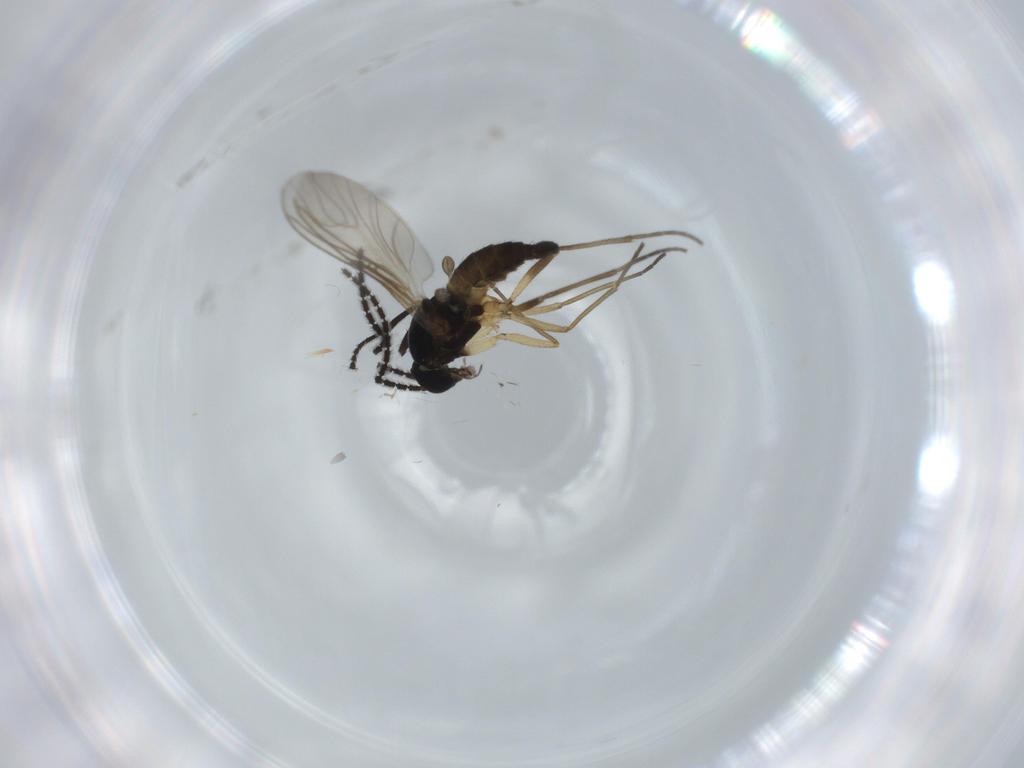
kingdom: Animalia
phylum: Arthropoda
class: Insecta
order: Diptera
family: Sciaridae
